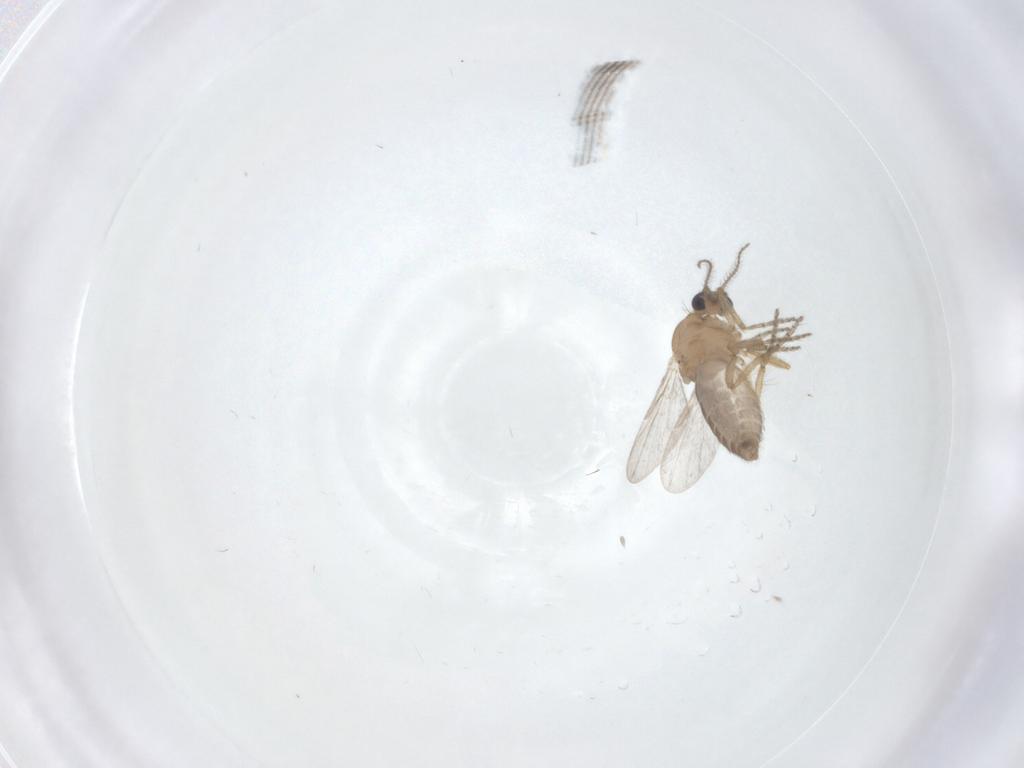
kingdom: Animalia
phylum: Arthropoda
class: Insecta
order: Diptera
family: Ceratopogonidae
